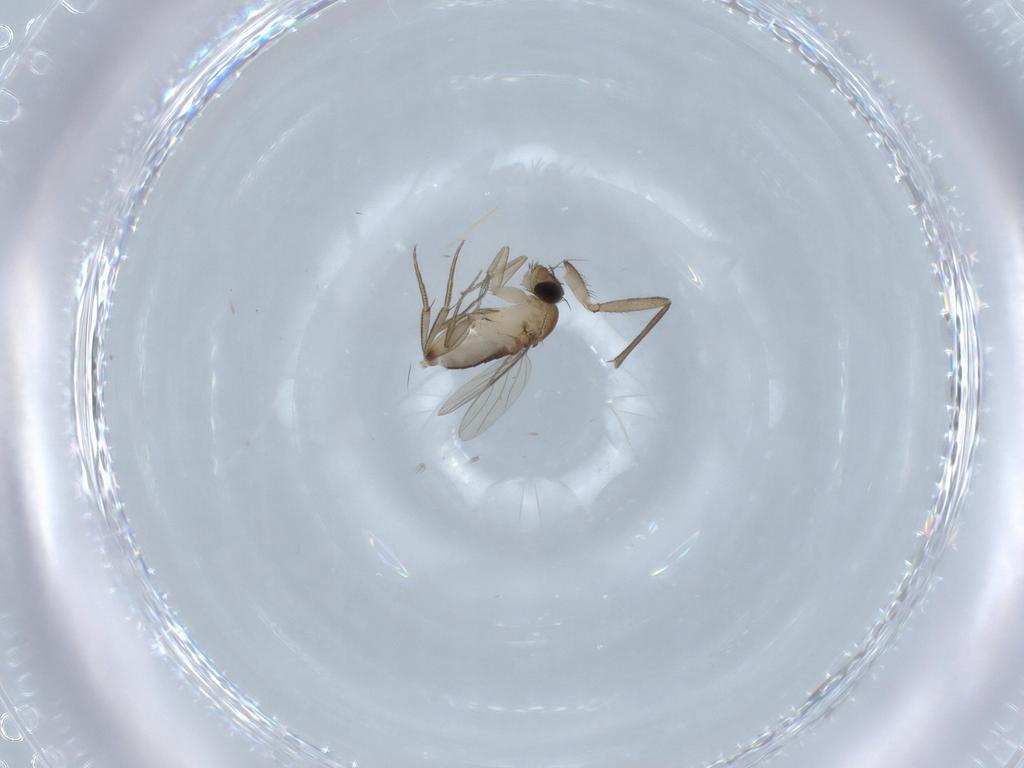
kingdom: Animalia
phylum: Arthropoda
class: Insecta
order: Diptera
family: Phoridae
